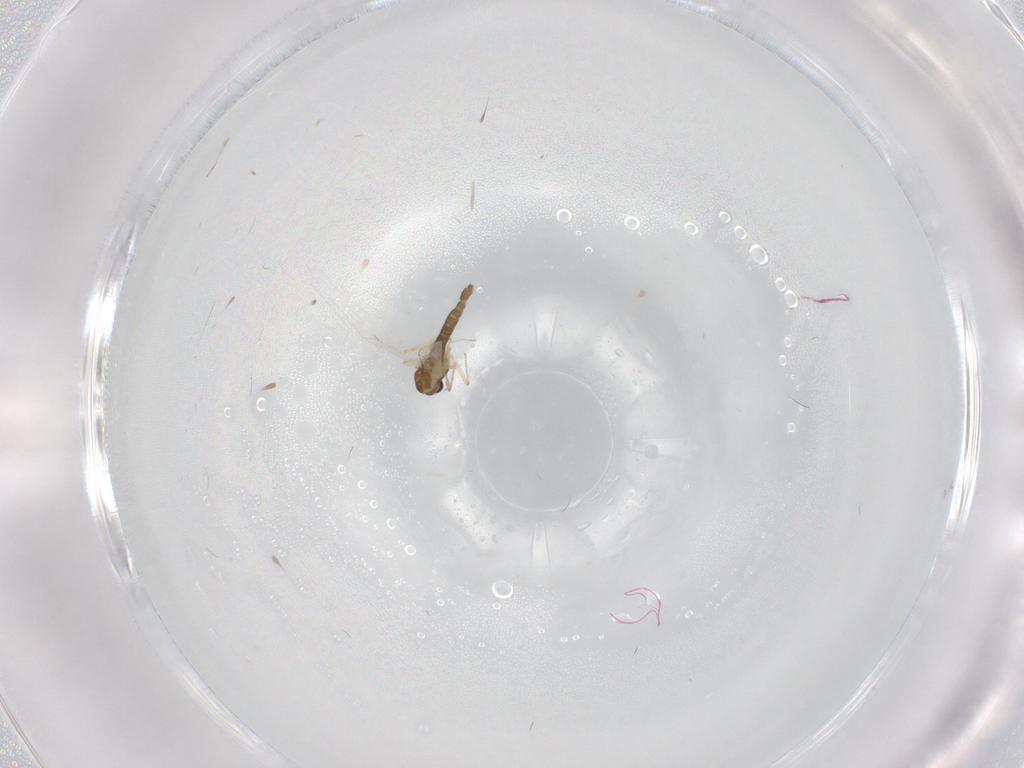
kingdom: Animalia
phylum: Arthropoda
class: Insecta
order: Diptera
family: Chironomidae
